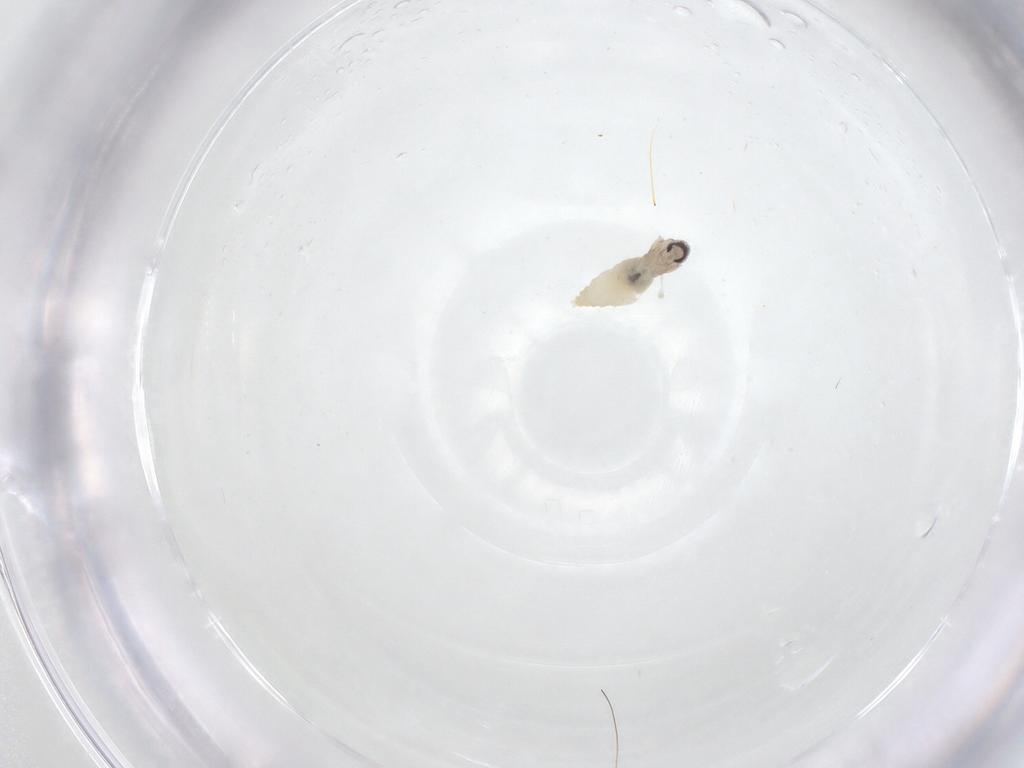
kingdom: Animalia
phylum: Arthropoda
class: Insecta
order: Diptera
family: Cecidomyiidae
